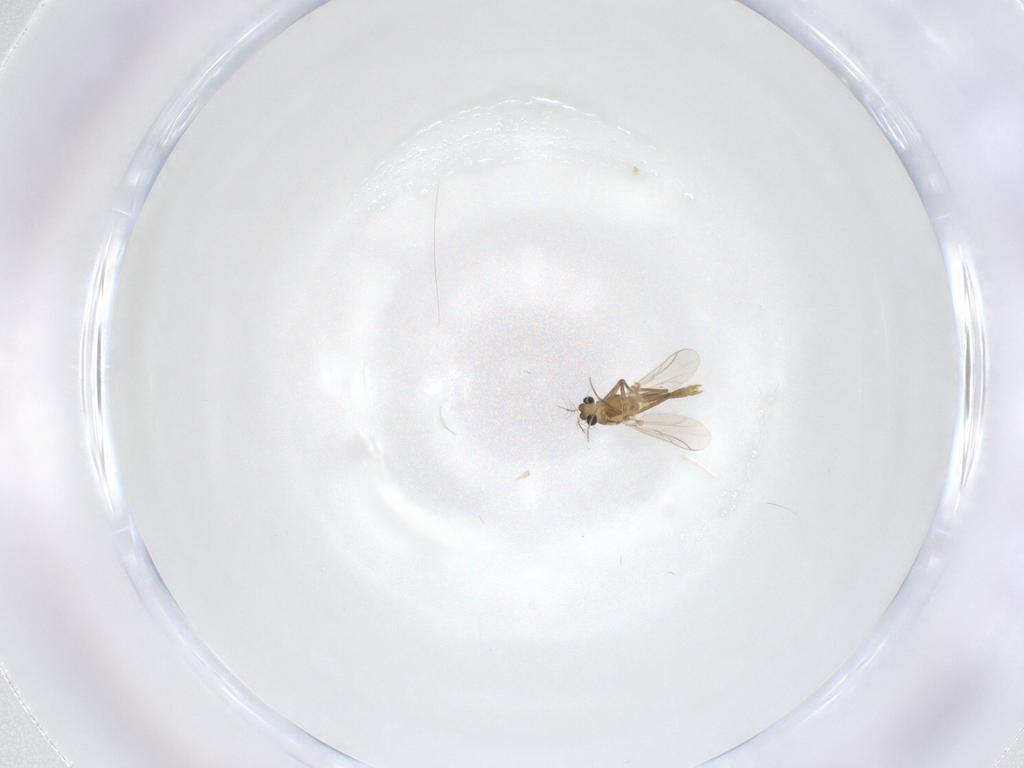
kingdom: Animalia
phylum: Arthropoda
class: Insecta
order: Diptera
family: Chironomidae
